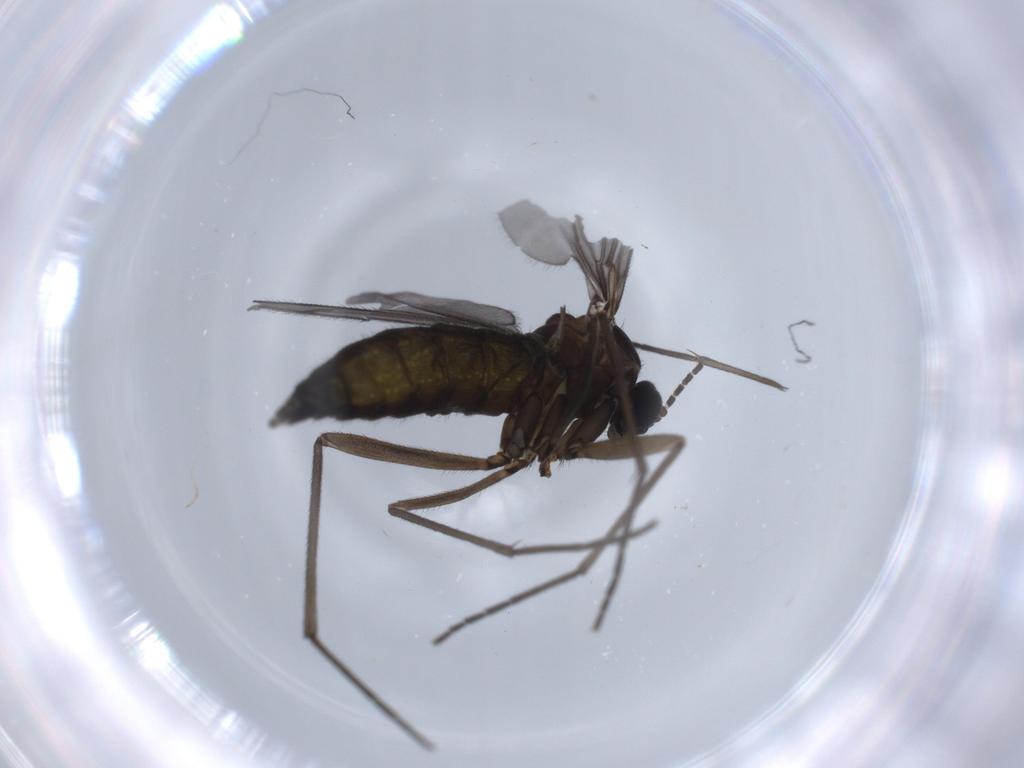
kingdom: Animalia
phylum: Arthropoda
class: Insecta
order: Diptera
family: Sciaridae
